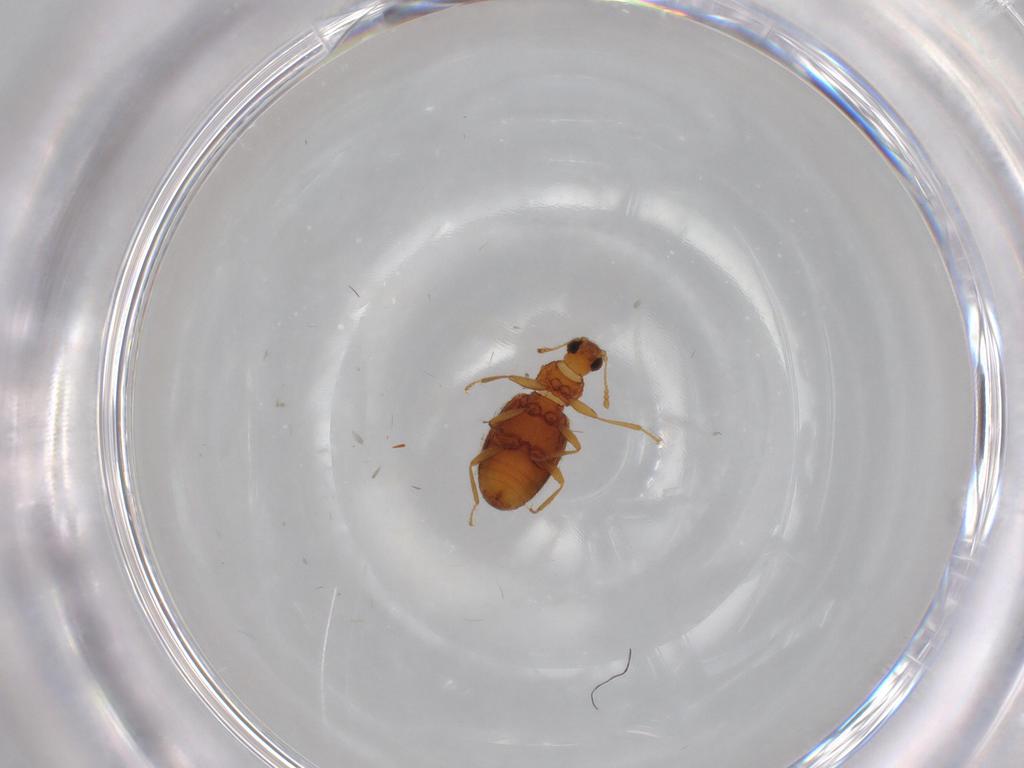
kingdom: Animalia
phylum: Arthropoda
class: Insecta
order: Coleoptera
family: Latridiidae
